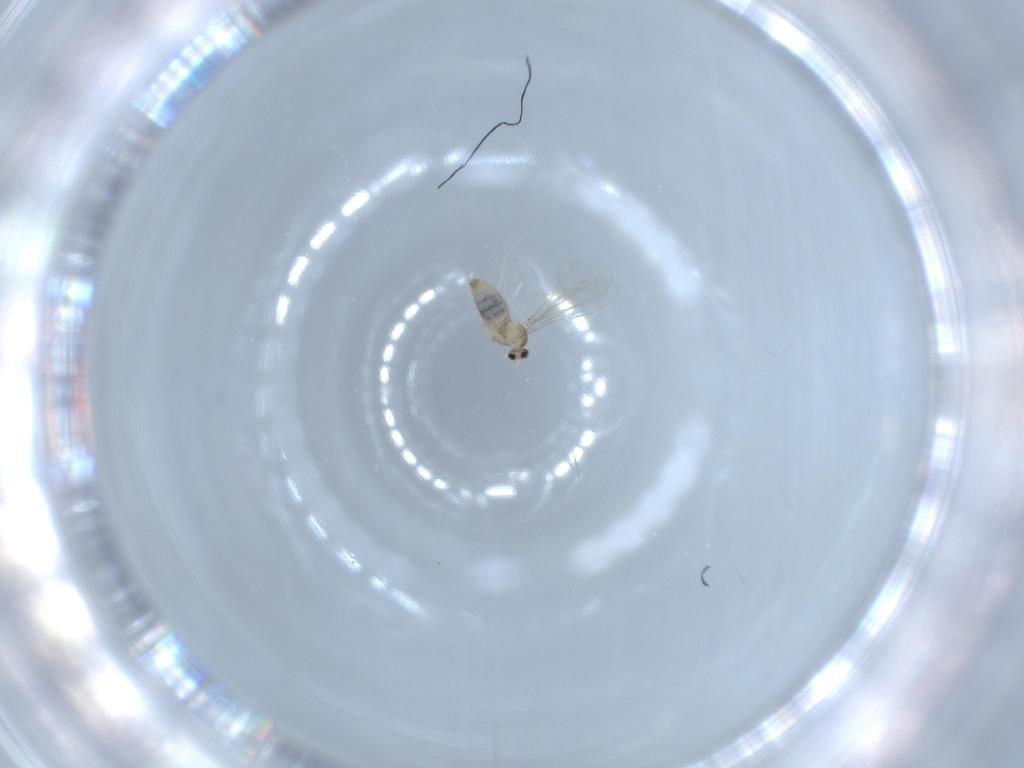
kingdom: Animalia
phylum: Arthropoda
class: Insecta
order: Diptera
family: Cecidomyiidae
